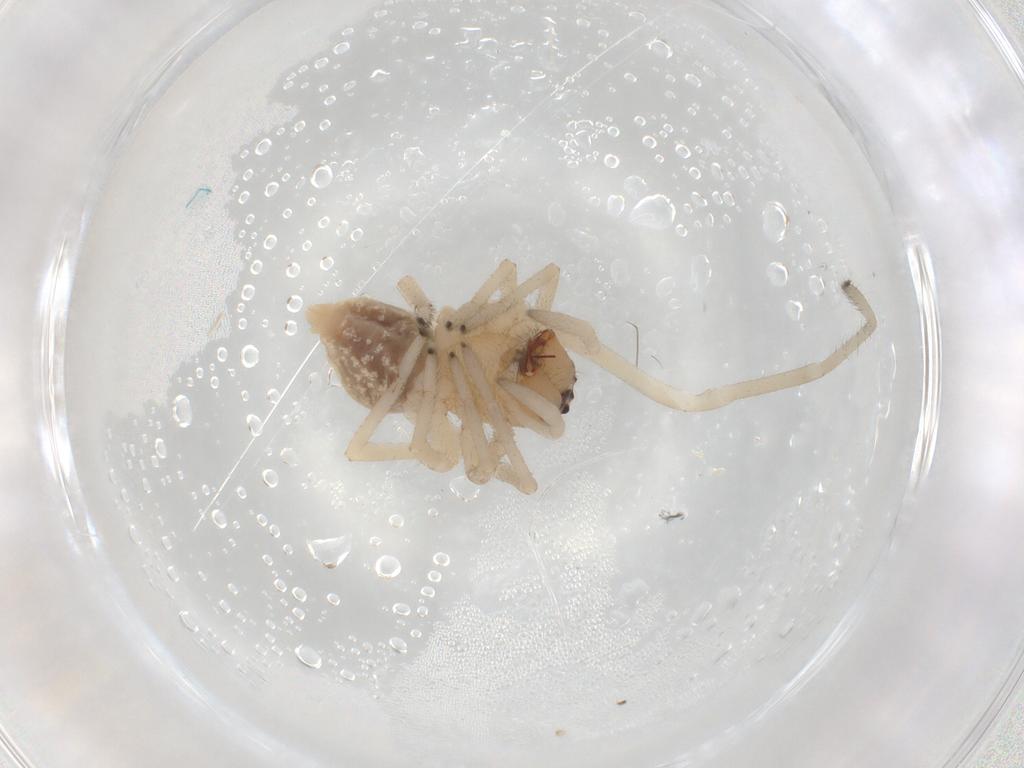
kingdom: Animalia
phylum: Arthropoda
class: Arachnida
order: Araneae
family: Cheiracanthiidae
